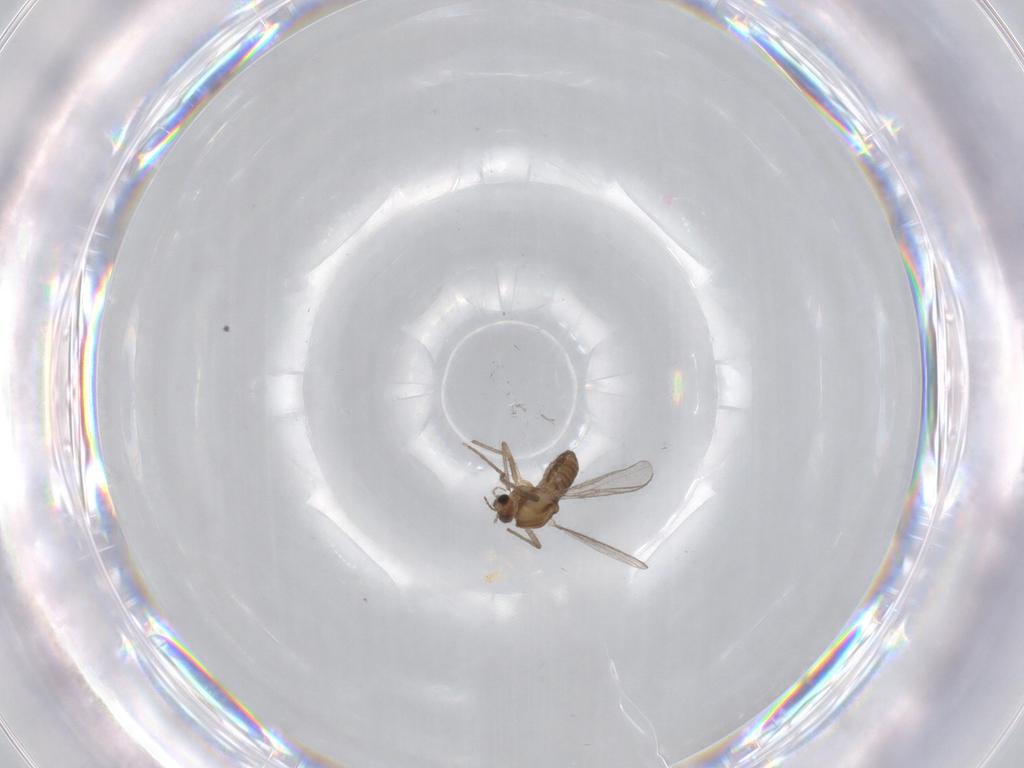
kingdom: Animalia
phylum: Arthropoda
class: Insecta
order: Diptera
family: Chironomidae
